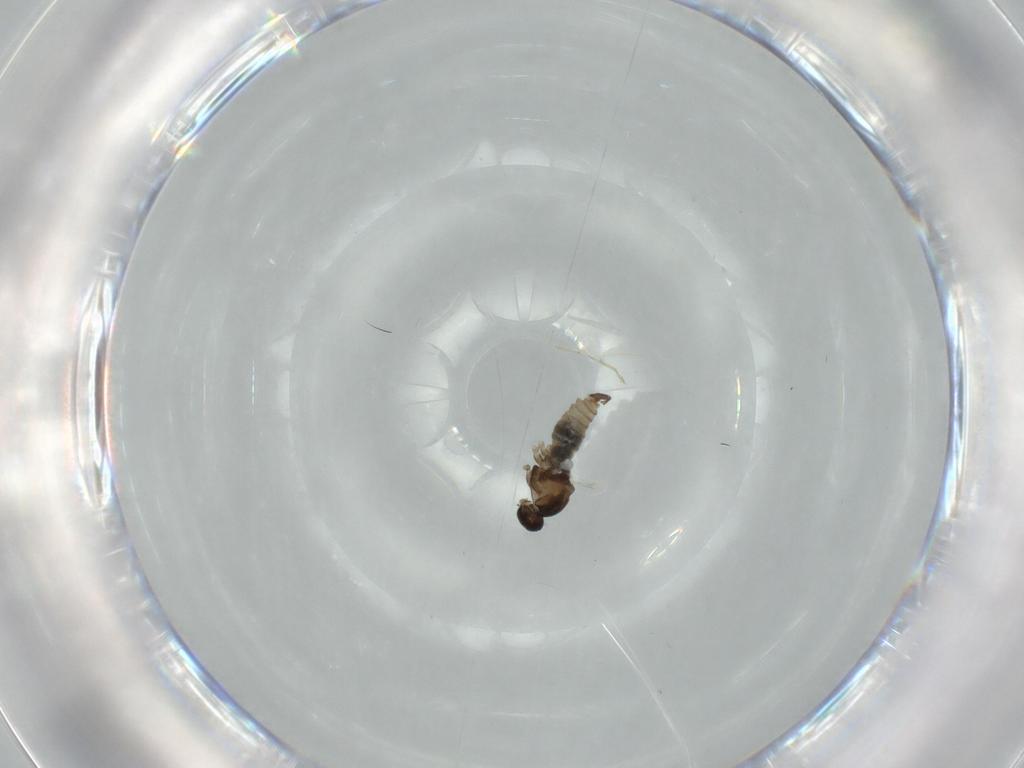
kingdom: Animalia
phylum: Arthropoda
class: Insecta
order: Diptera
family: Cecidomyiidae
